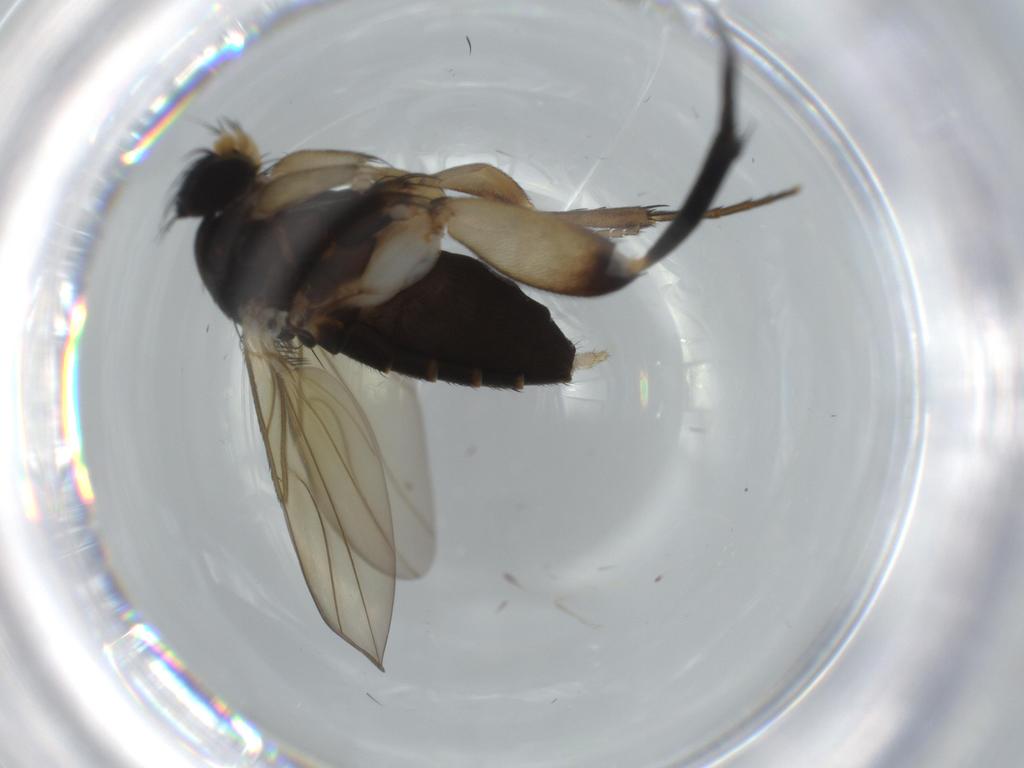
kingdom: Animalia
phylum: Arthropoda
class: Insecta
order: Diptera
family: Phoridae
